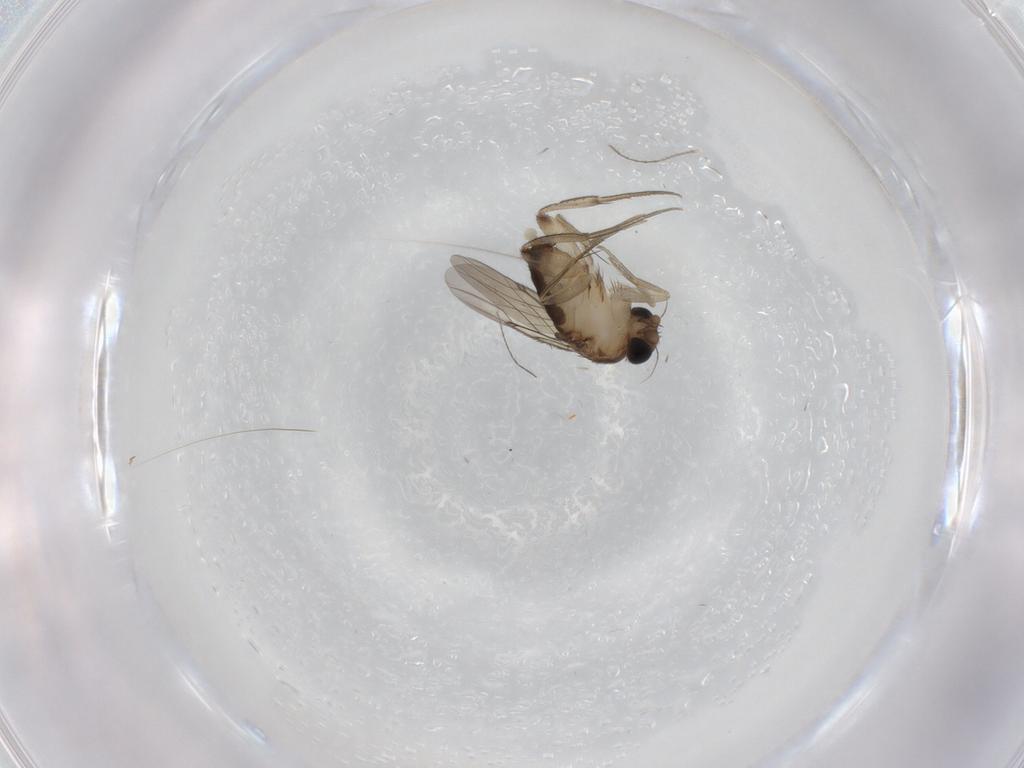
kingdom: Animalia
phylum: Arthropoda
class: Insecta
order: Diptera
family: Phoridae
